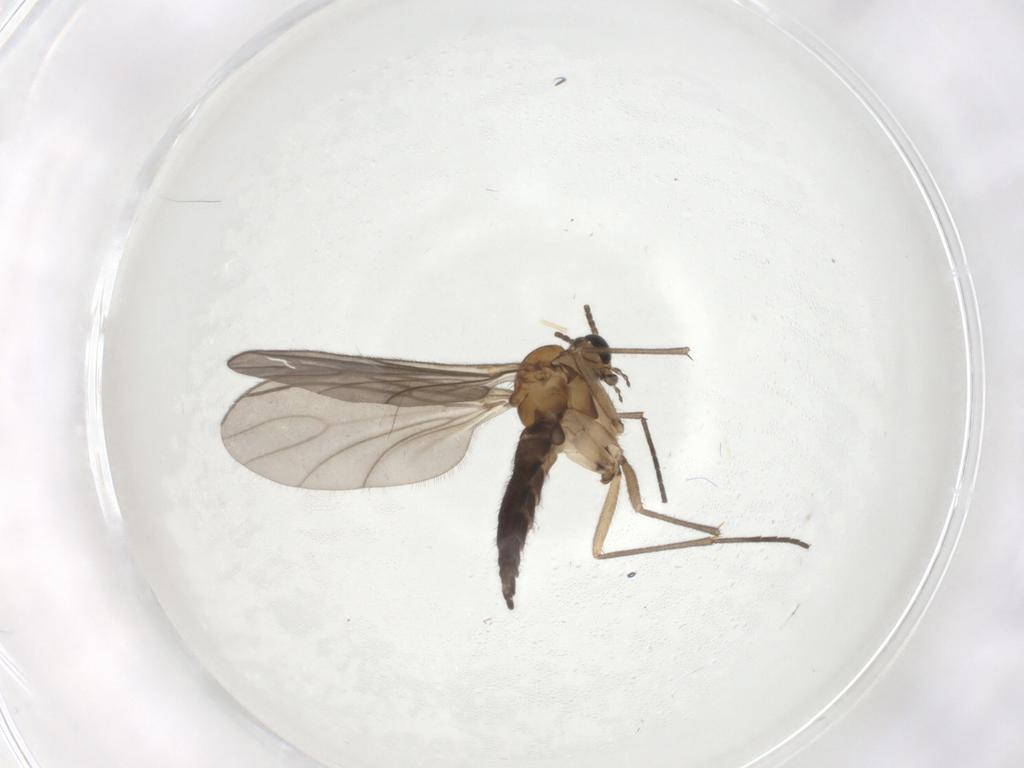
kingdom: Animalia
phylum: Arthropoda
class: Insecta
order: Diptera
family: Sciaridae
